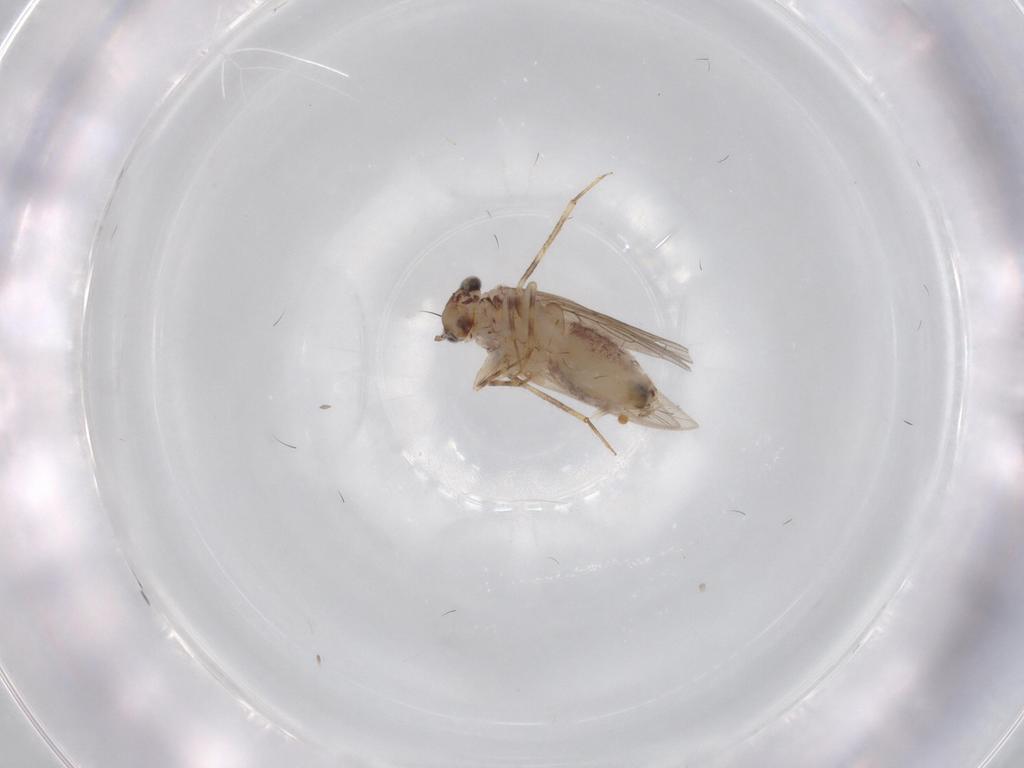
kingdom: Animalia
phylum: Arthropoda
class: Insecta
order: Psocodea
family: Lepidopsocidae
